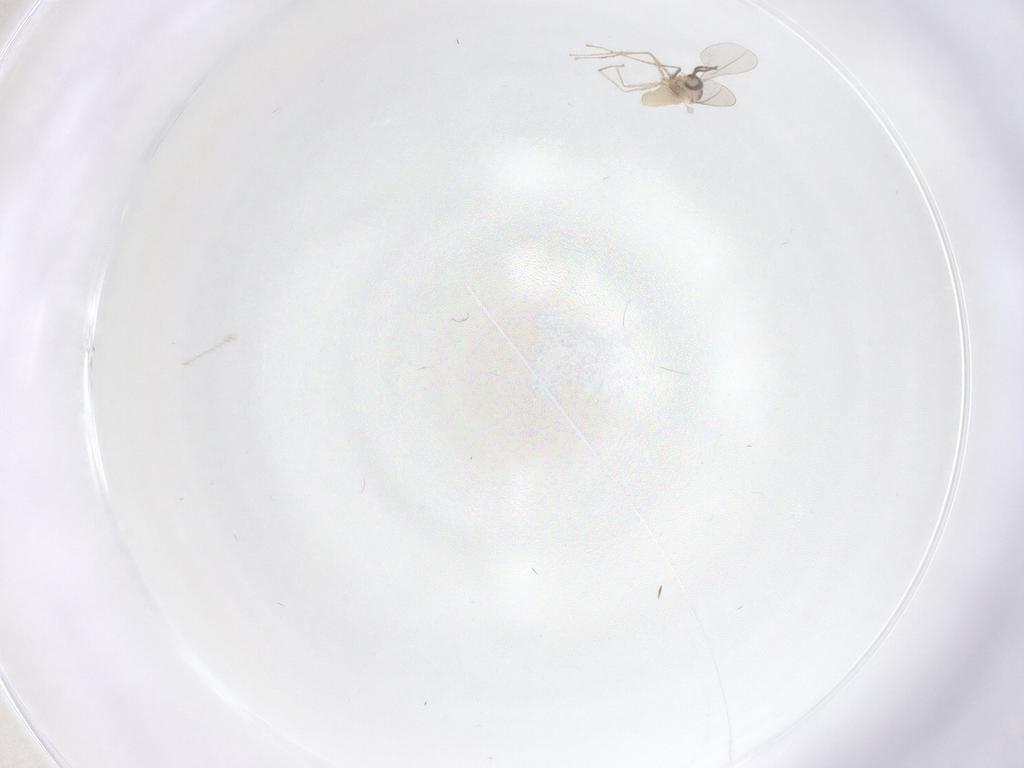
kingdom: Animalia
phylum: Arthropoda
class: Insecta
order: Diptera
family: Cecidomyiidae
